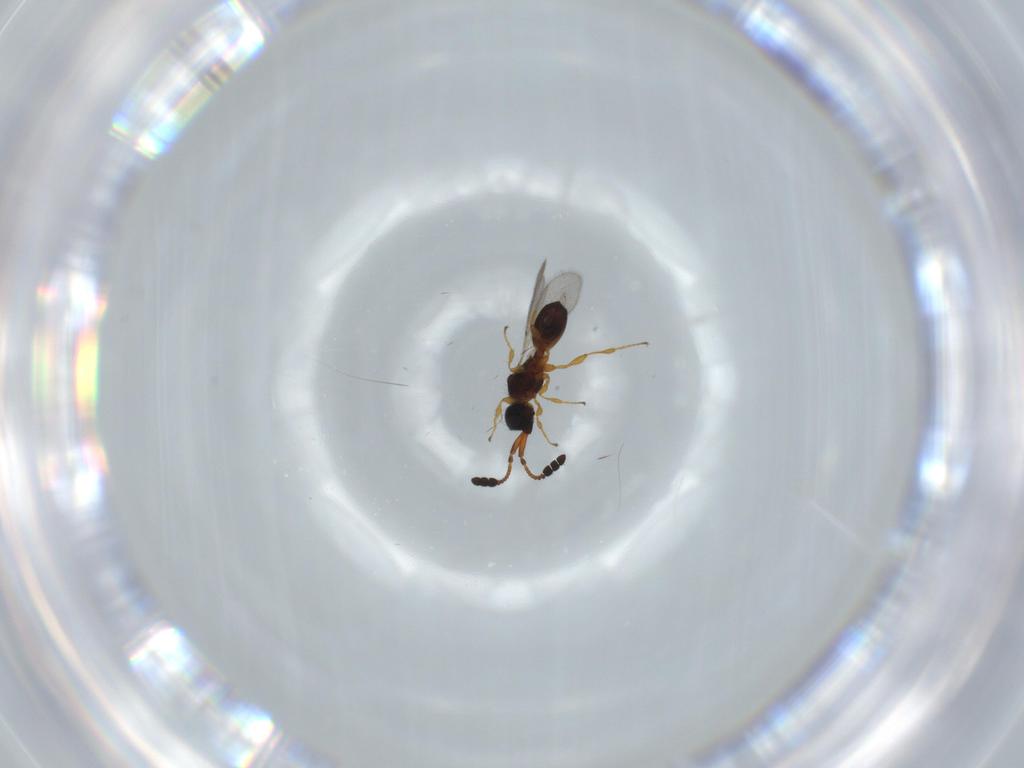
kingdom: Animalia
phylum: Arthropoda
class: Insecta
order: Hymenoptera
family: Diapriidae
